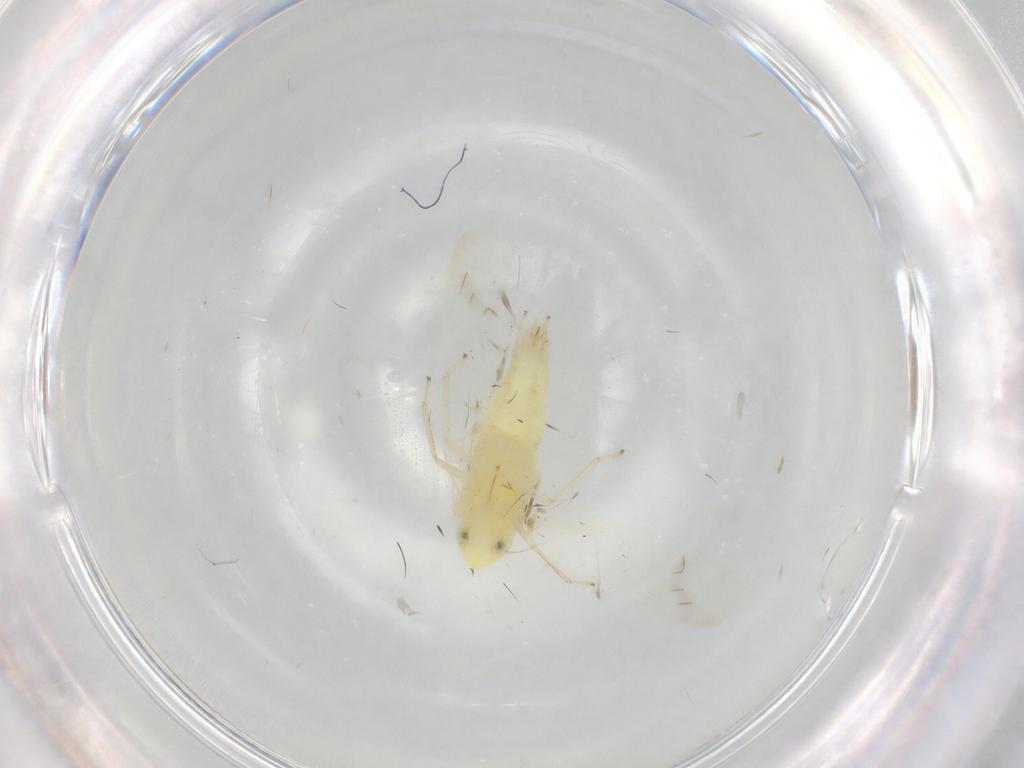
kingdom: Animalia
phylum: Arthropoda
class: Insecta
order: Hemiptera
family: Cicadellidae
